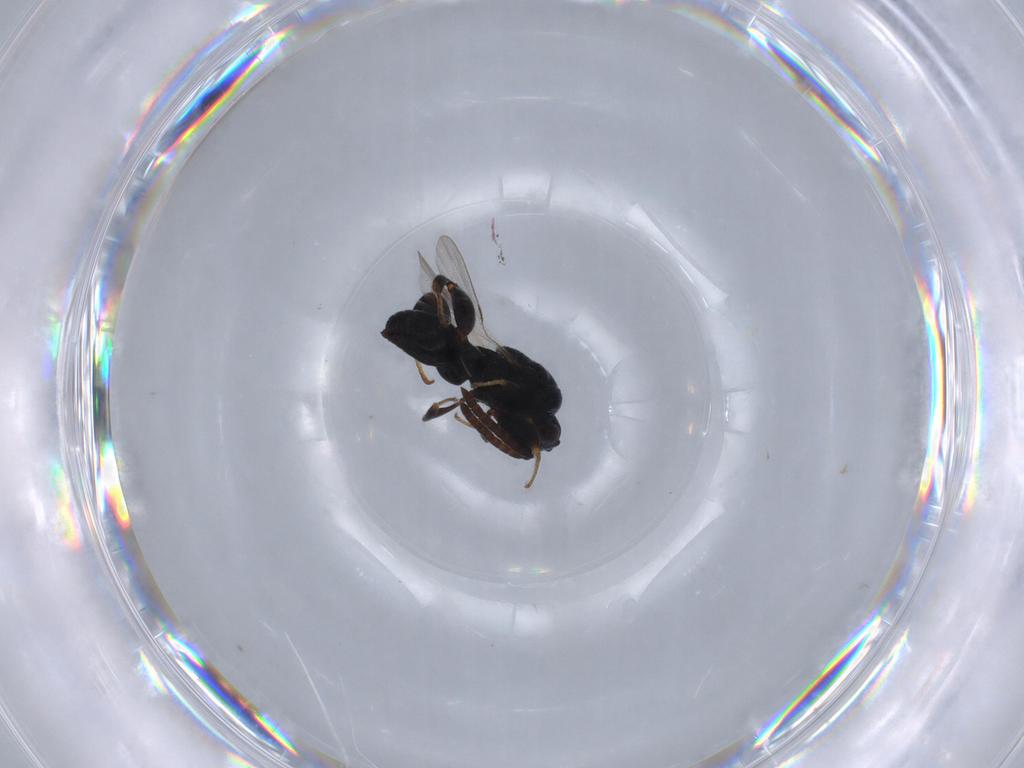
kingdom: Animalia
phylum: Arthropoda
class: Insecta
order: Hymenoptera
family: Chalcididae
